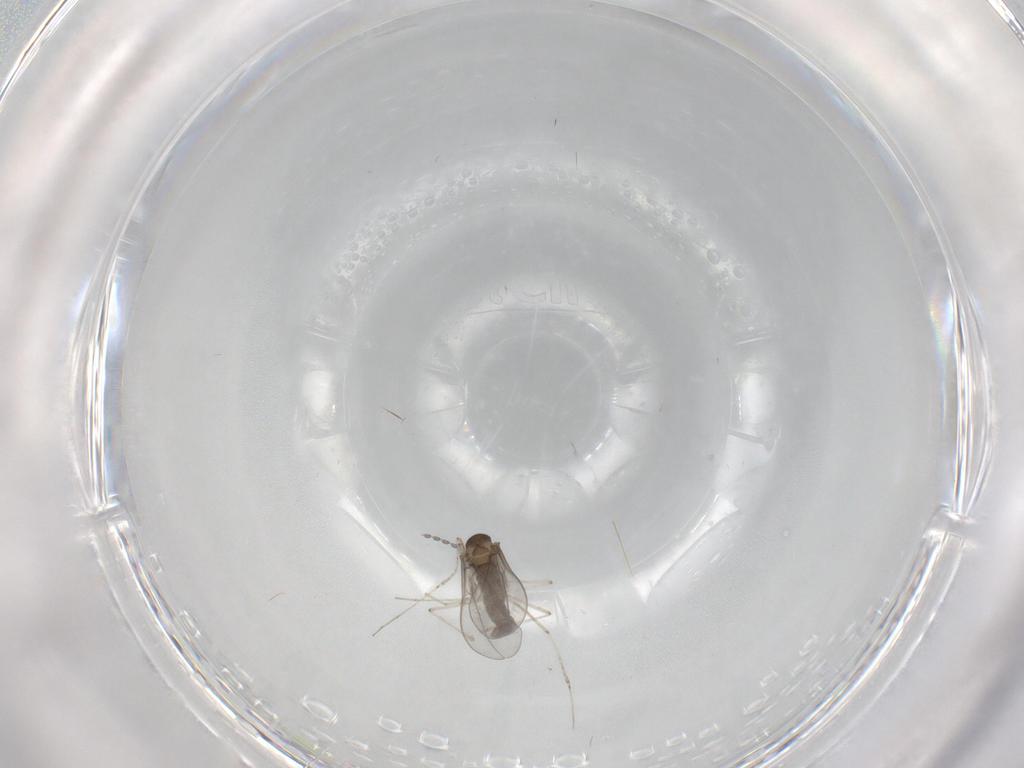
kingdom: Animalia
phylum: Arthropoda
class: Insecta
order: Diptera
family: Cecidomyiidae
